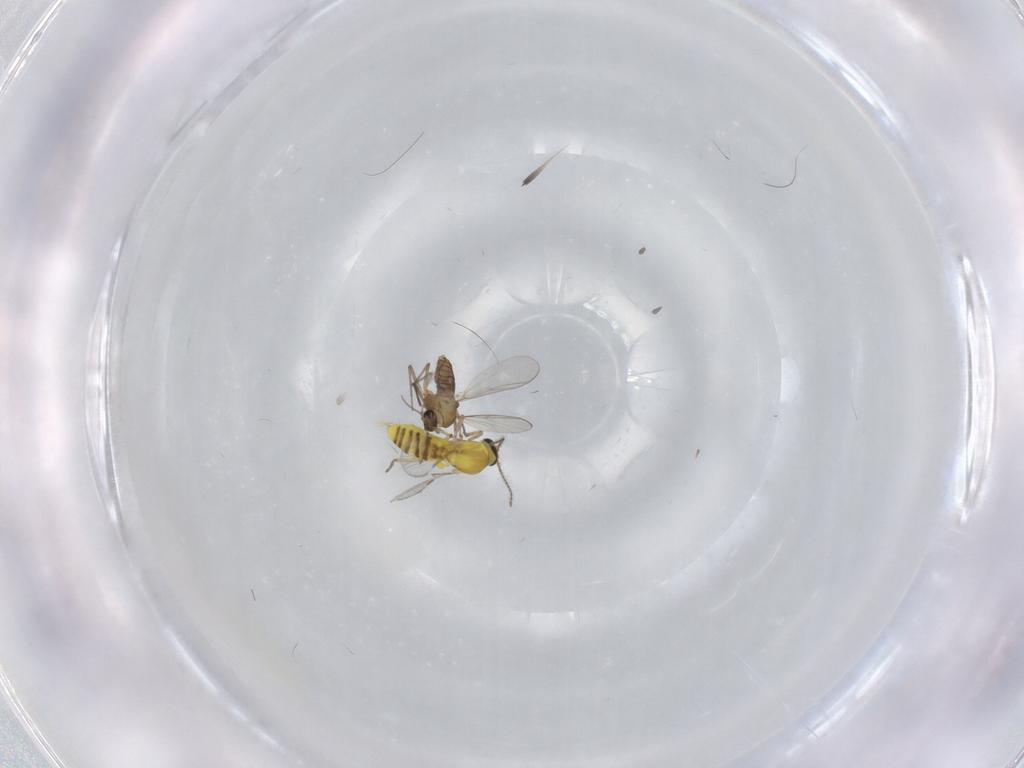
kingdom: Animalia
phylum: Arthropoda
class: Insecta
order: Diptera
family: Chironomidae
